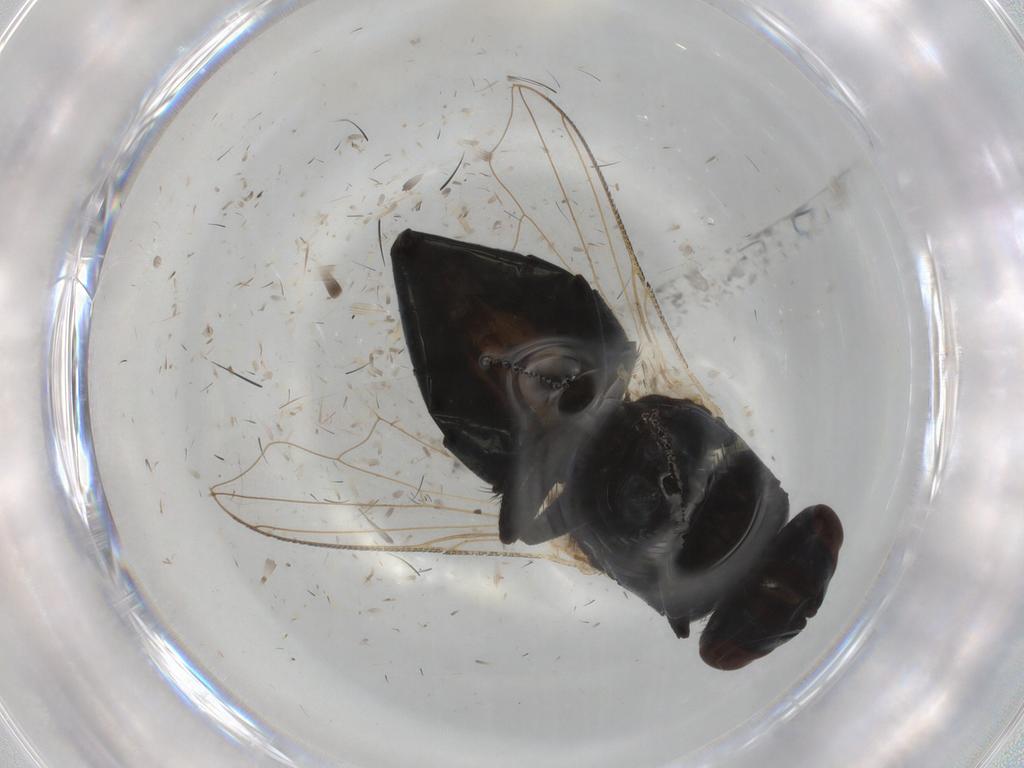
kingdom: Animalia
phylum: Arthropoda
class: Insecta
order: Diptera
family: Muscidae
